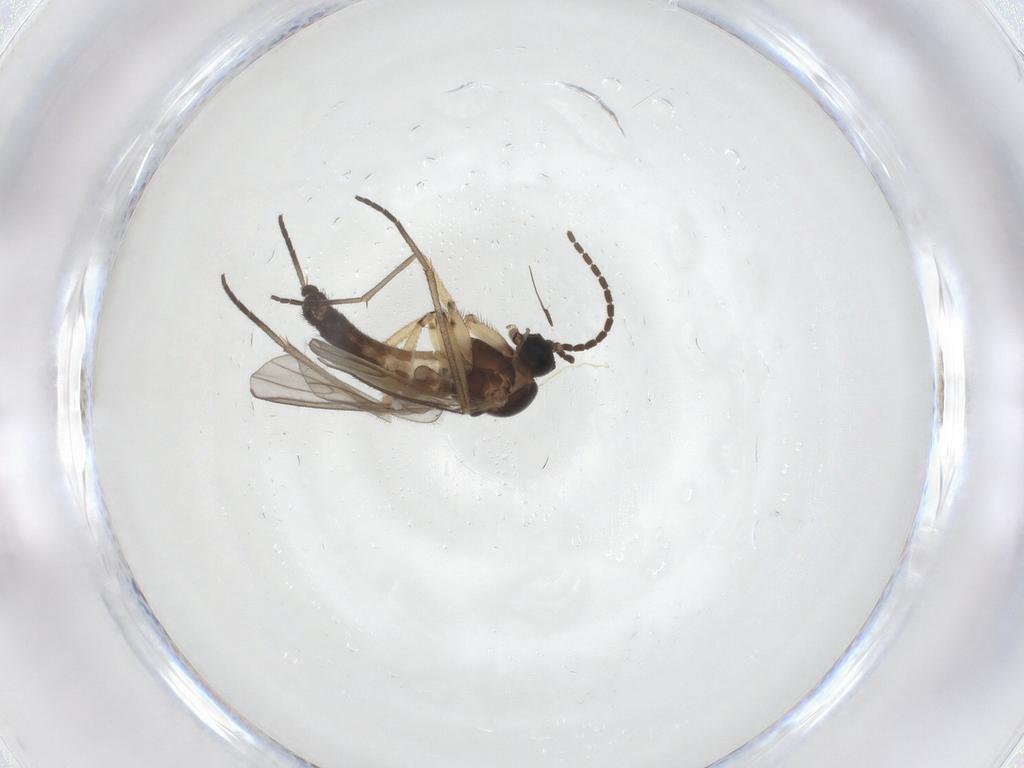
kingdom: Animalia
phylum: Arthropoda
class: Insecta
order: Diptera
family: Sciaridae
